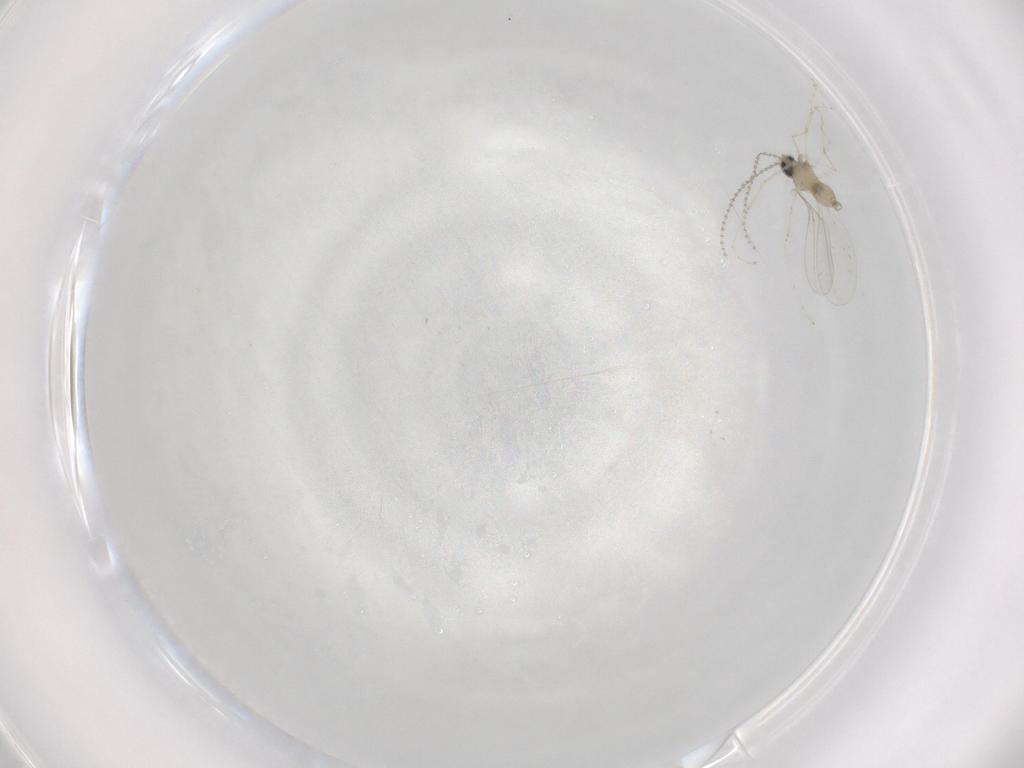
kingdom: Animalia
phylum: Arthropoda
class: Insecta
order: Diptera
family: Cecidomyiidae
